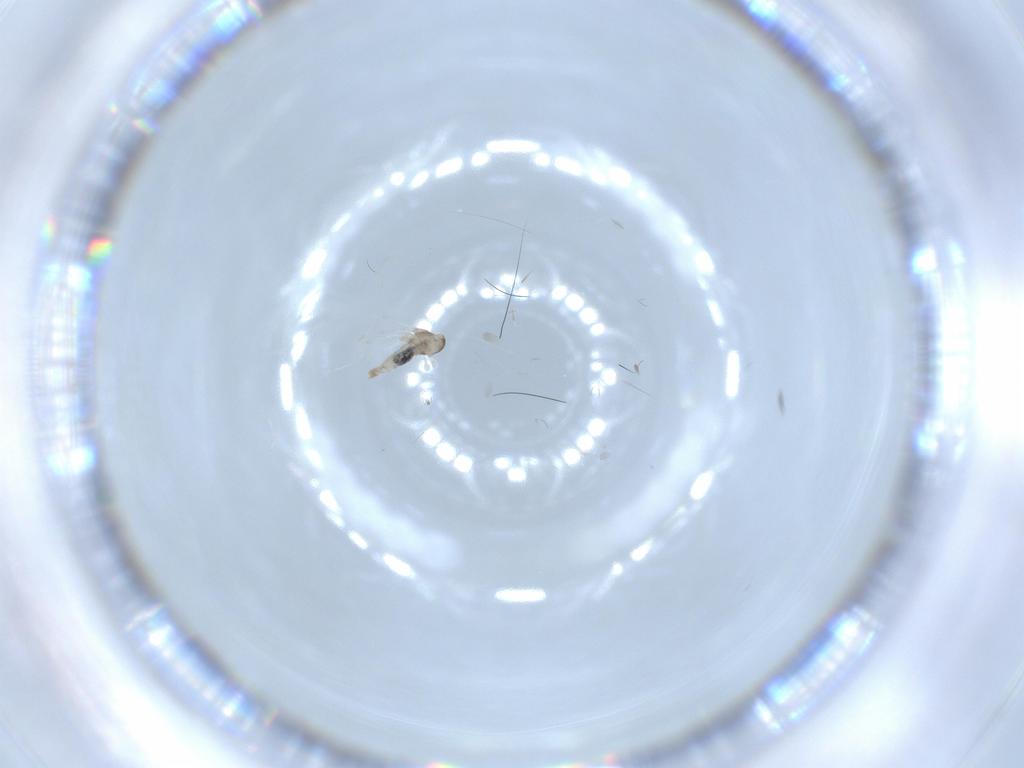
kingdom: Animalia
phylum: Arthropoda
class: Insecta
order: Diptera
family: Cecidomyiidae
